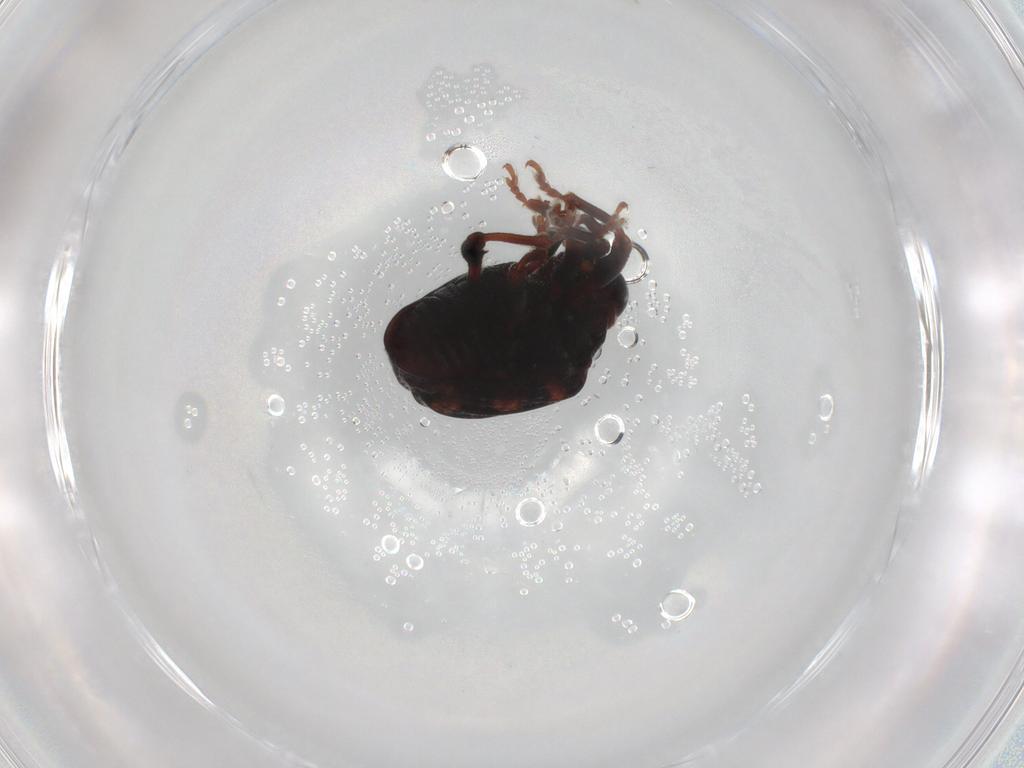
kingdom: Animalia
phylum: Arthropoda
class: Insecta
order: Coleoptera
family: Curculionidae
